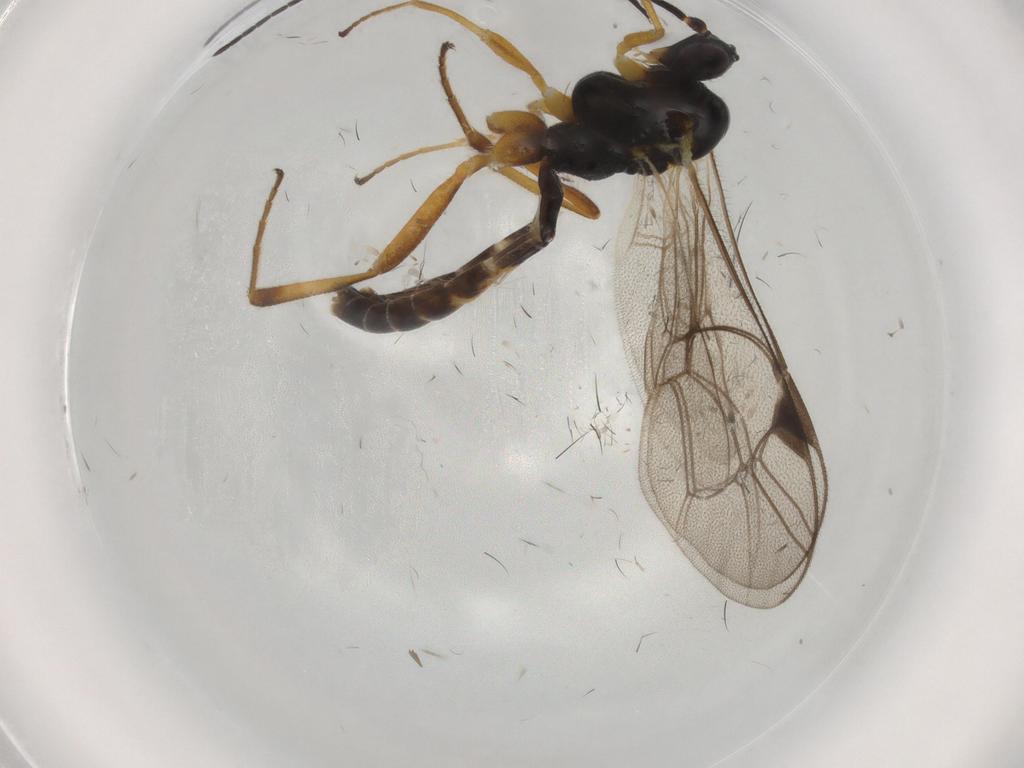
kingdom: Animalia
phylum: Arthropoda
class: Insecta
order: Hymenoptera
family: Ichneumonidae
